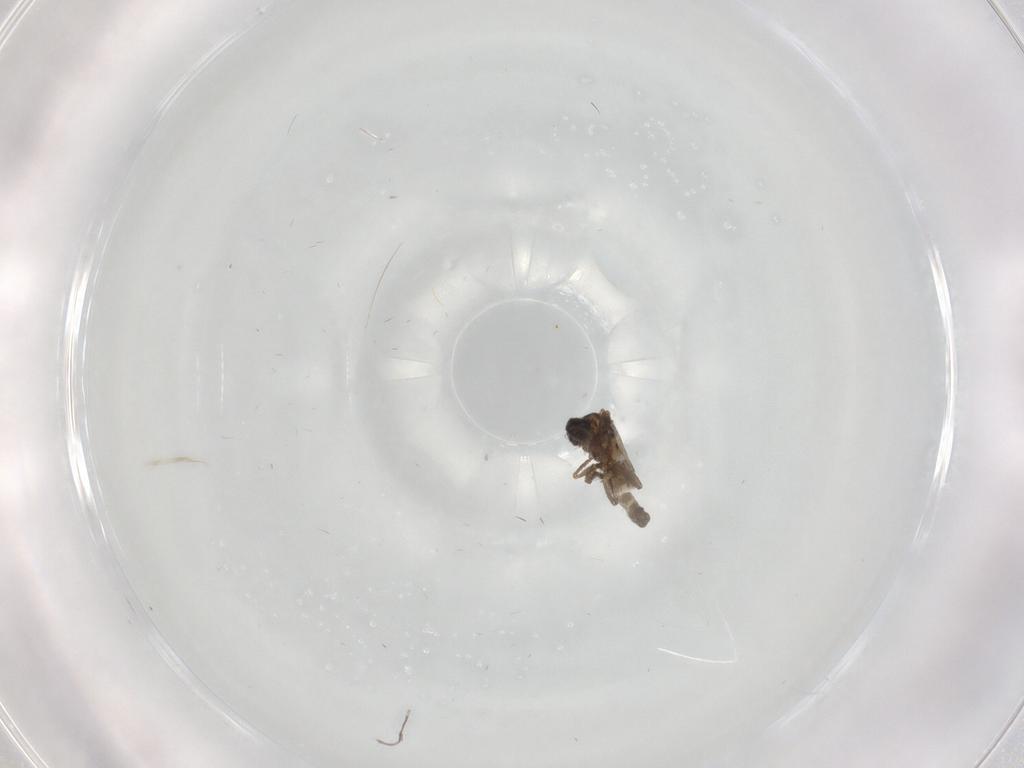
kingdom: Animalia
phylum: Arthropoda
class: Insecta
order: Diptera
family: Ceratopogonidae
